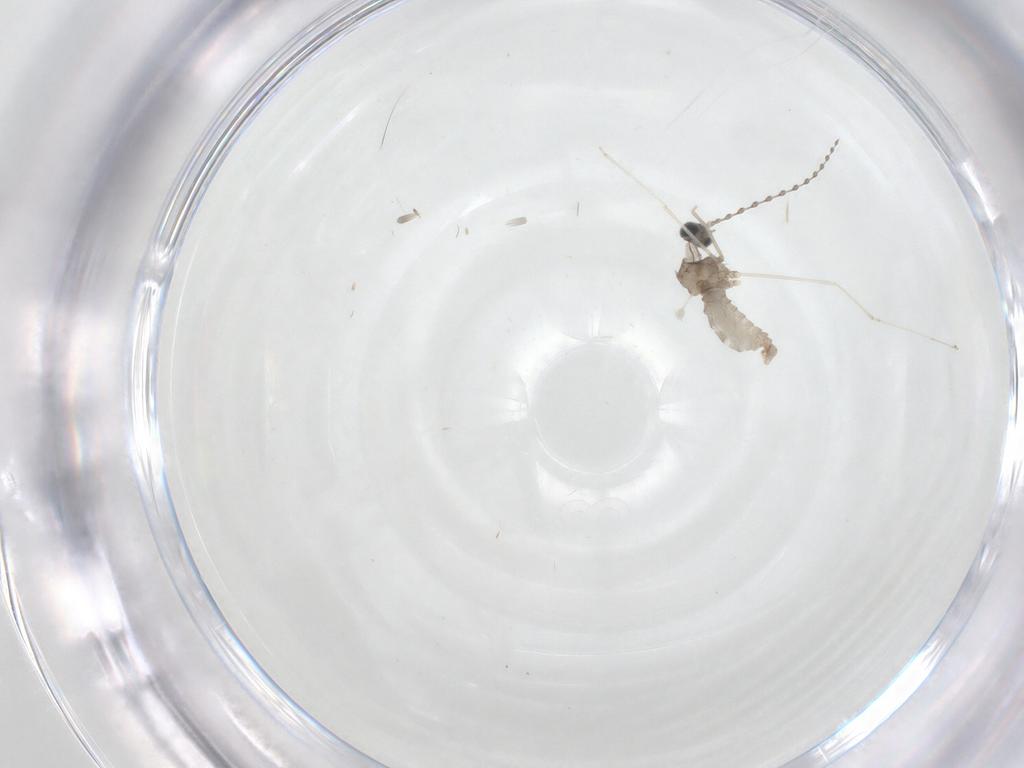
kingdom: Animalia
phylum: Arthropoda
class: Insecta
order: Diptera
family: Cecidomyiidae
